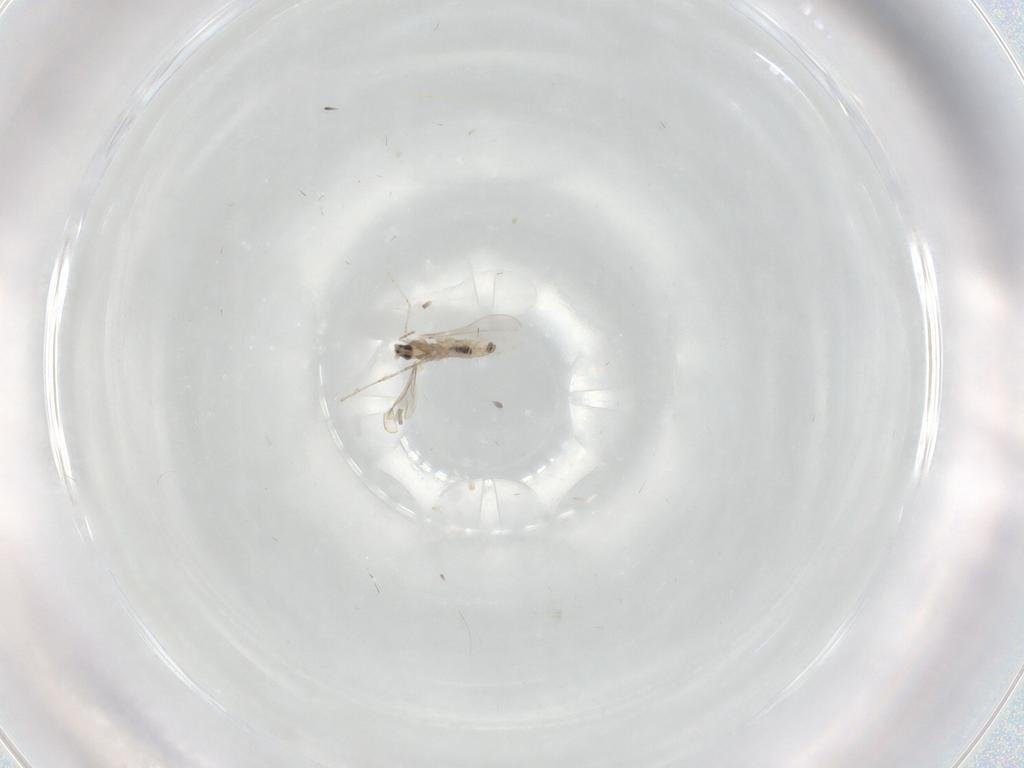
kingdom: Animalia
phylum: Arthropoda
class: Insecta
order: Diptera
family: Cecidomyiidae
